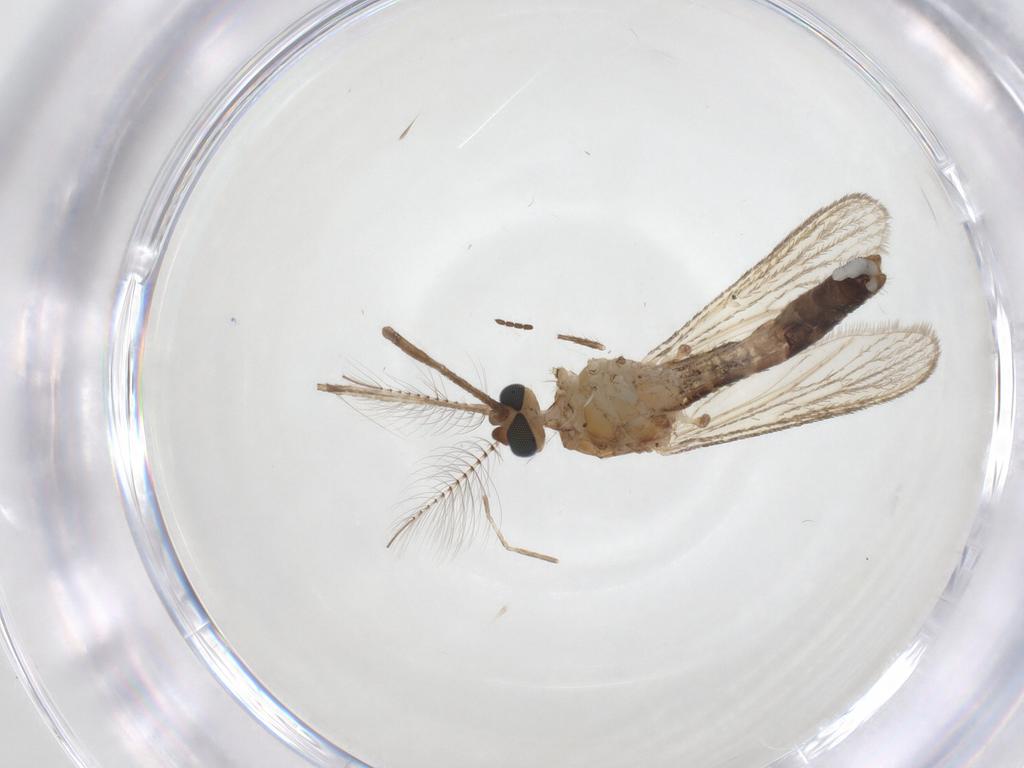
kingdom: Animalia
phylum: Arthropoda
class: Insecta
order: Diptera
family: Culicidae
